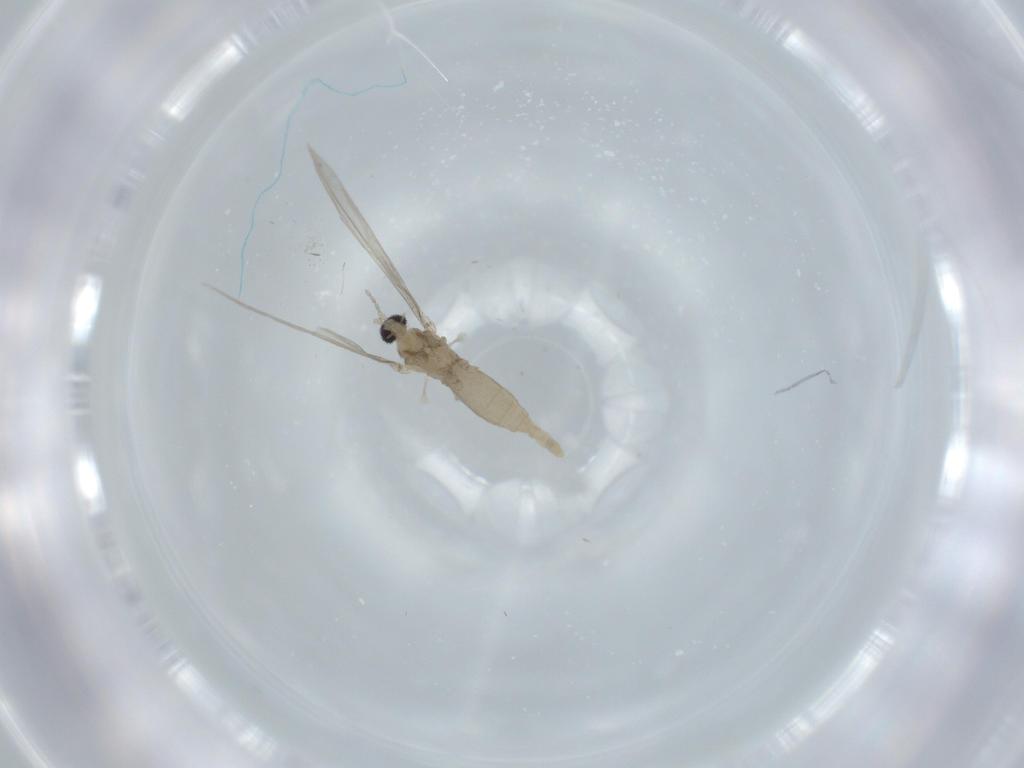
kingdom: Animalia
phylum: Arthropoda
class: Insecta
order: Diptera
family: Cecidomyiidae
